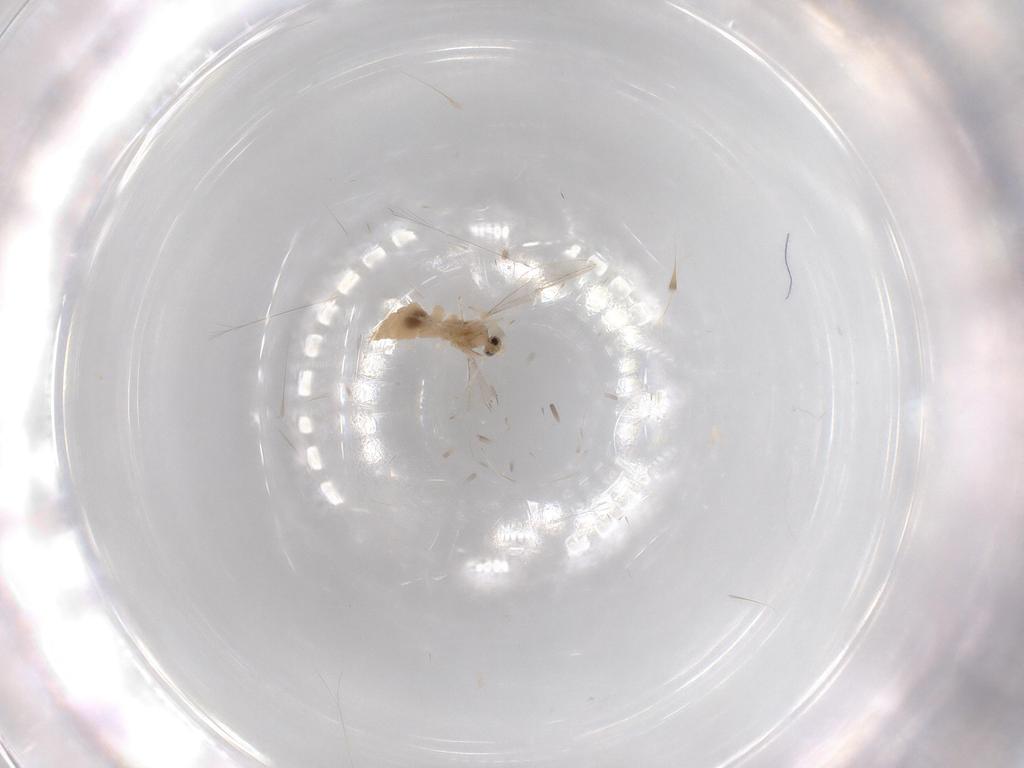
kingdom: Animalia
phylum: Arthropoda
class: Insecta
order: Diptera
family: Cecidomyiidae
